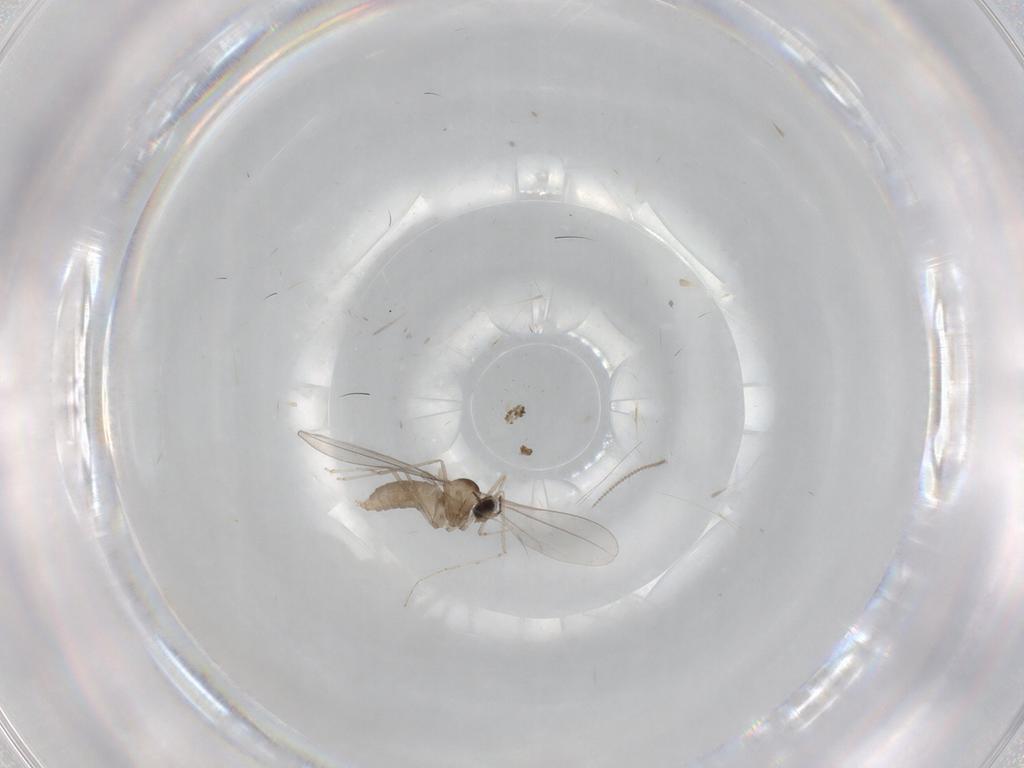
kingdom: Animalia
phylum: Arthropoda
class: Insecta
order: Diptera
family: Cecidomyiidae
